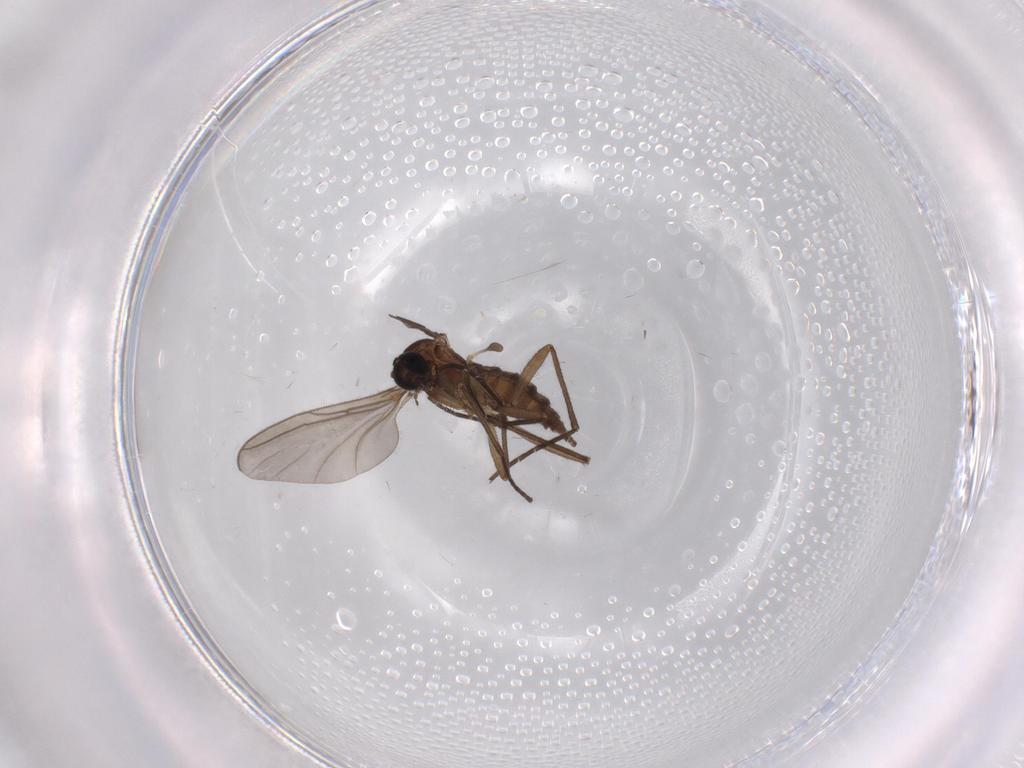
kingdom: Animalia
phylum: Arthropoda
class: Insecta
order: Diptera
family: Sciaridae
